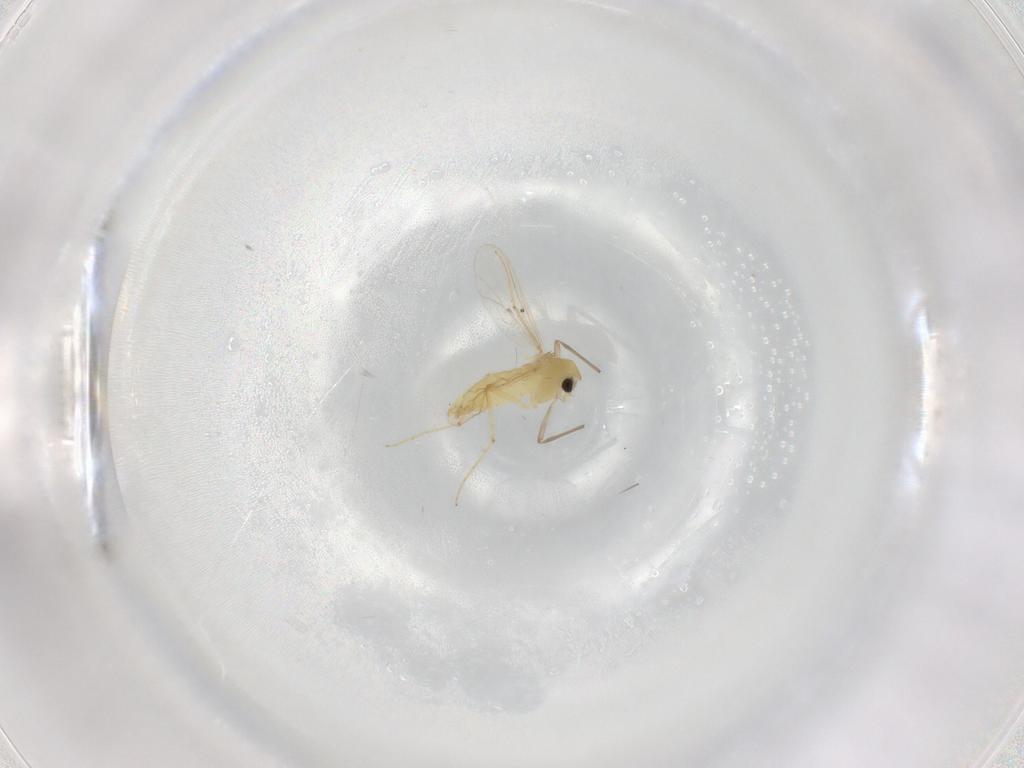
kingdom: Animalia
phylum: Arthropoda
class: Insecta
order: Diptera
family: Chironomidae
